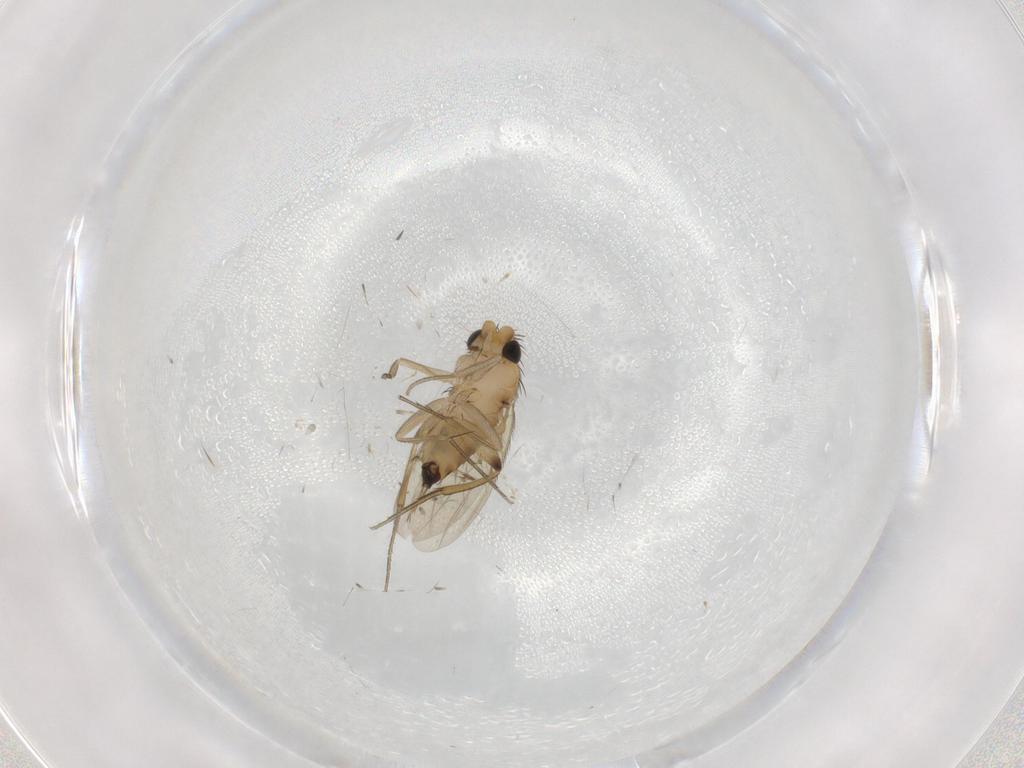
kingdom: Animalia
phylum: Arthropoda
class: Insecta
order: Diptera
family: Phoridae
